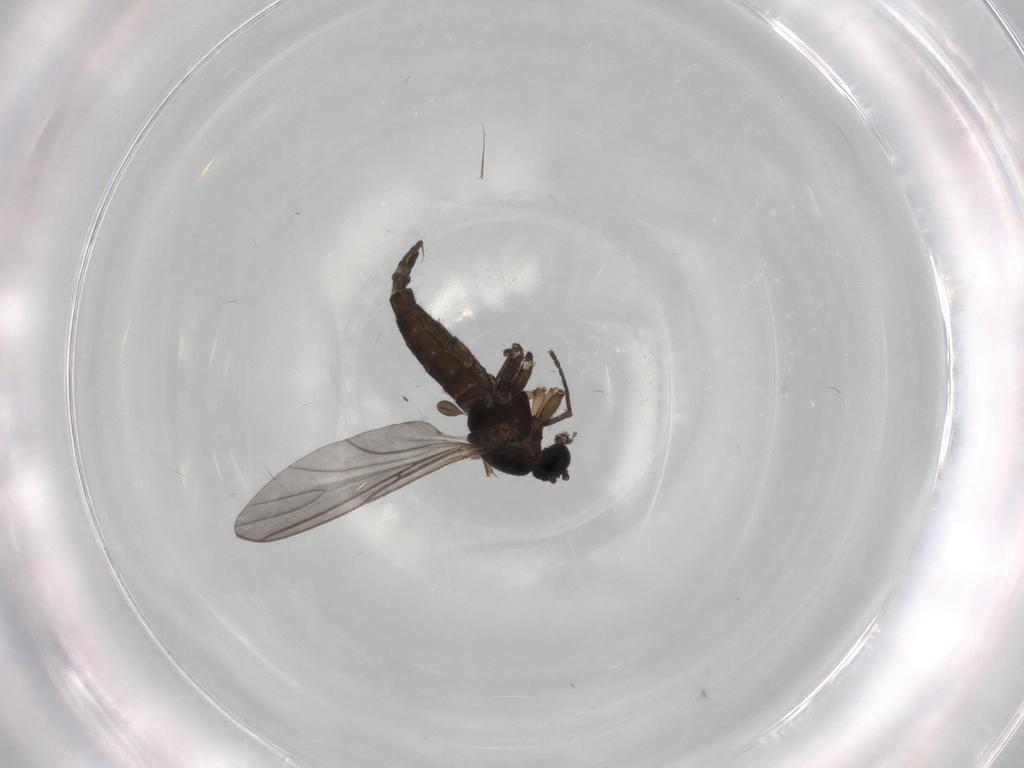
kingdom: Animalia
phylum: Arthropoda
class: Insecta
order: Diptera
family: Sciaridae
